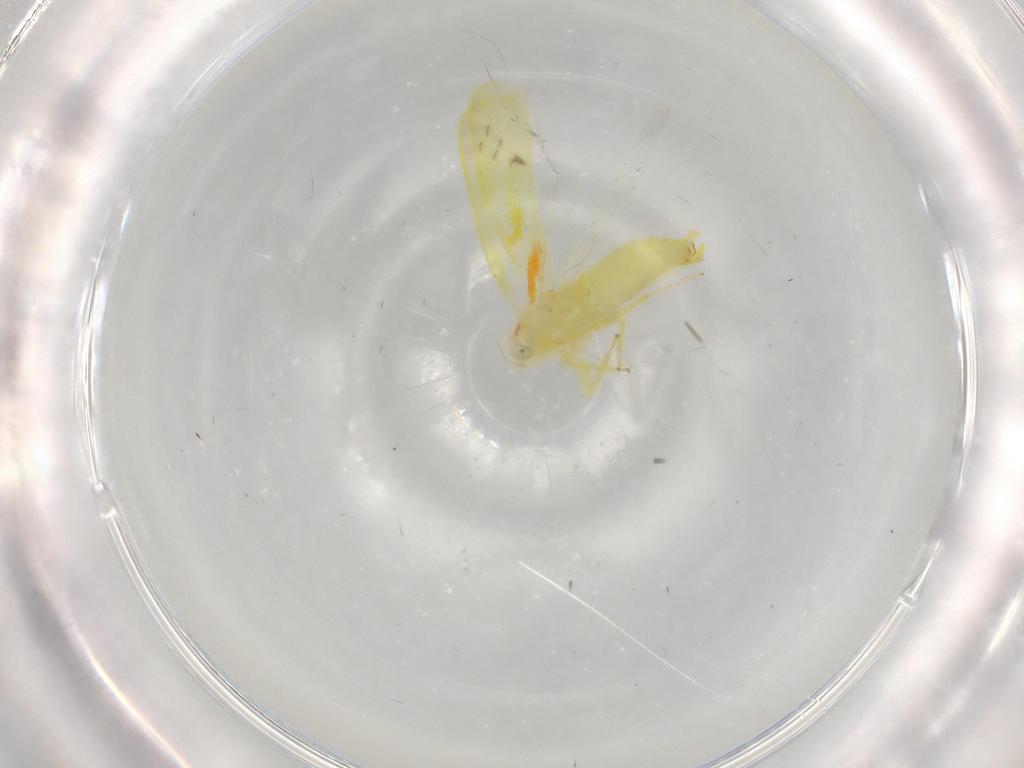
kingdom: Animalia
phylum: Arthropoda
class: Insecta
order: Hemiptera
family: Cicadellidae
